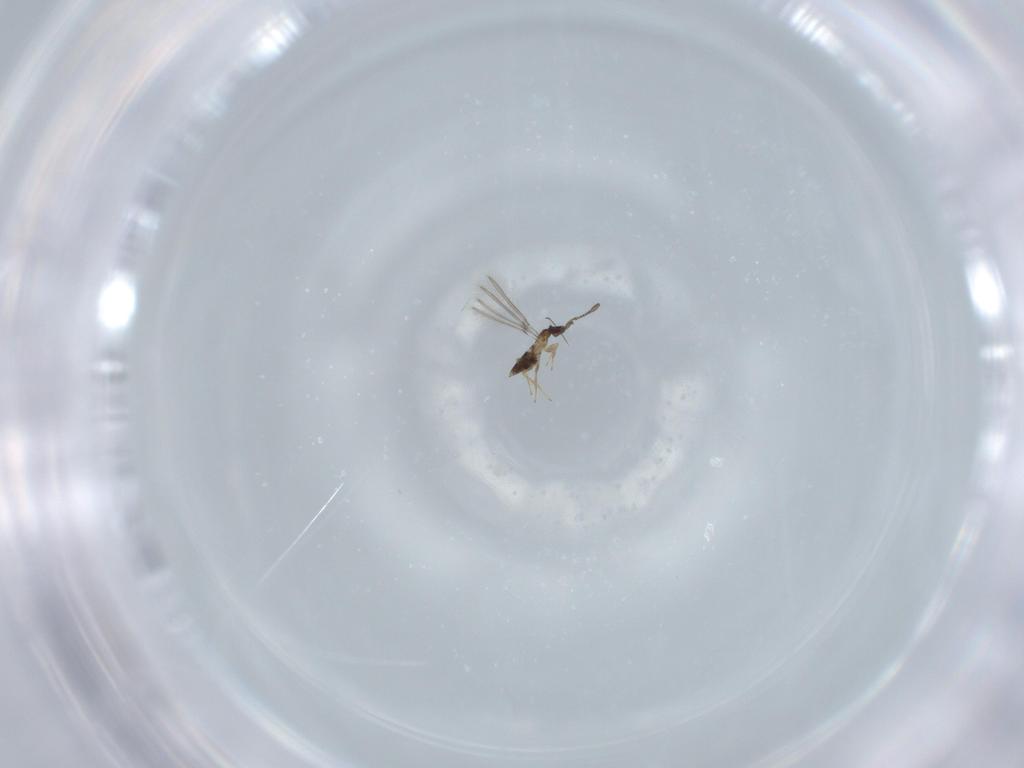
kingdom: Animalia
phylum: Arthropoda
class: Insecta
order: Hymenoptera
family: Mymaridae
